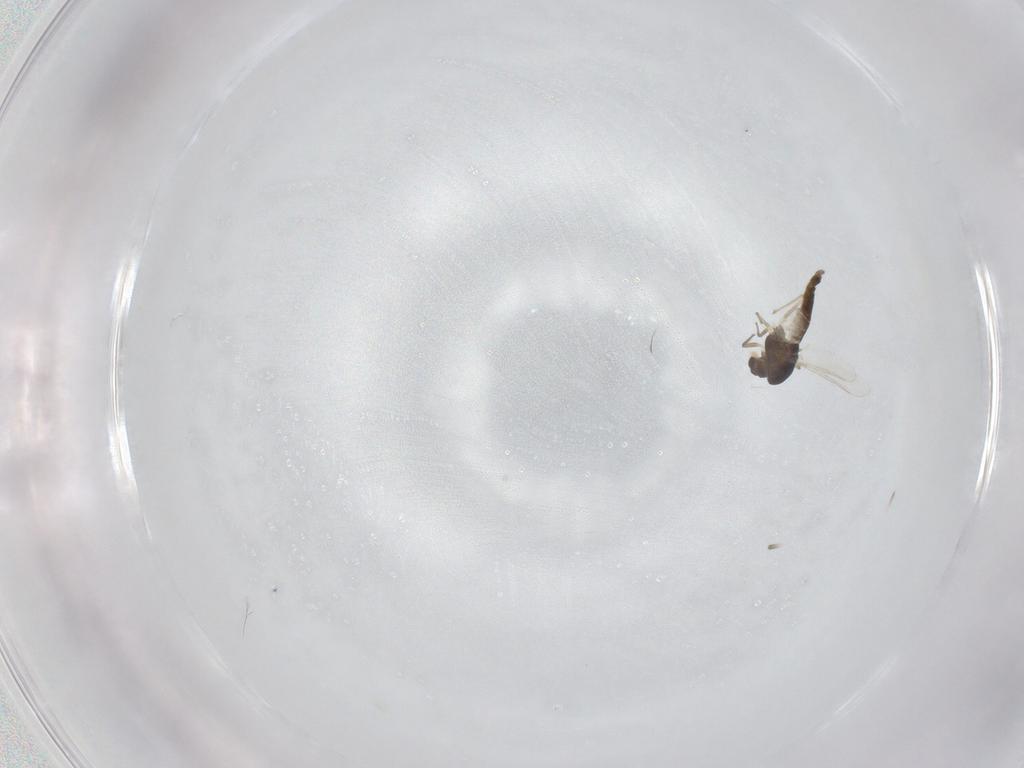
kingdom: Animalia
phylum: Arthropoda
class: Insecta
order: Diptera
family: Chironomidae
